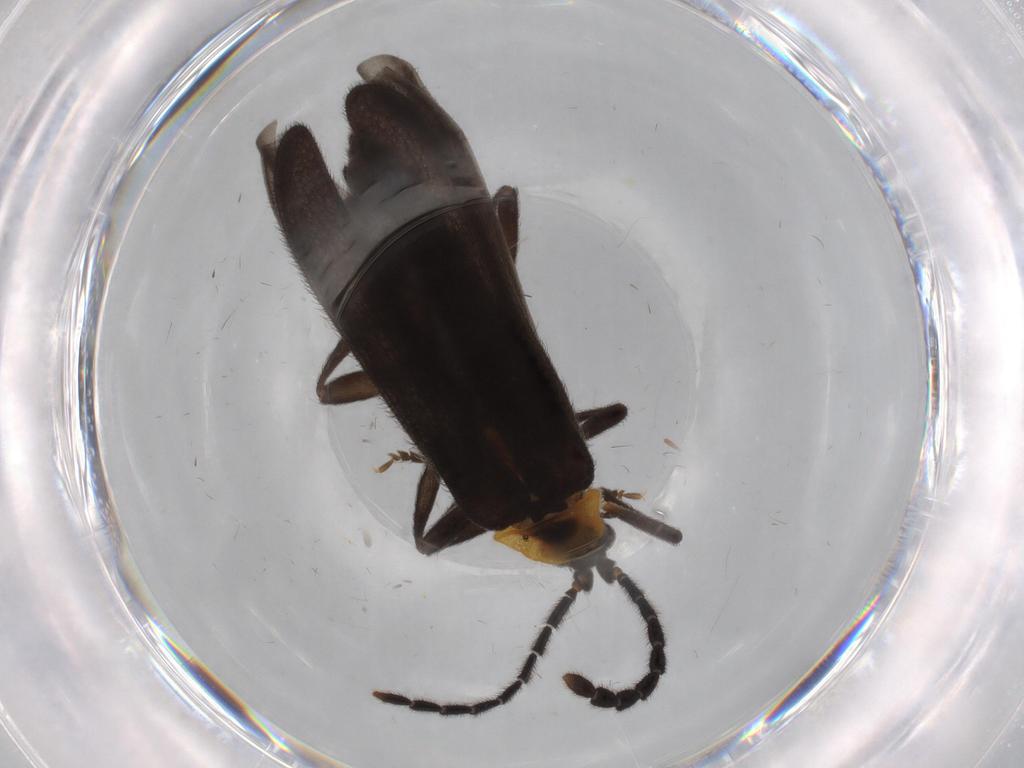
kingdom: Animalia
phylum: Arthropoda
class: Insecta
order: Coleoptera
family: Lycidae
